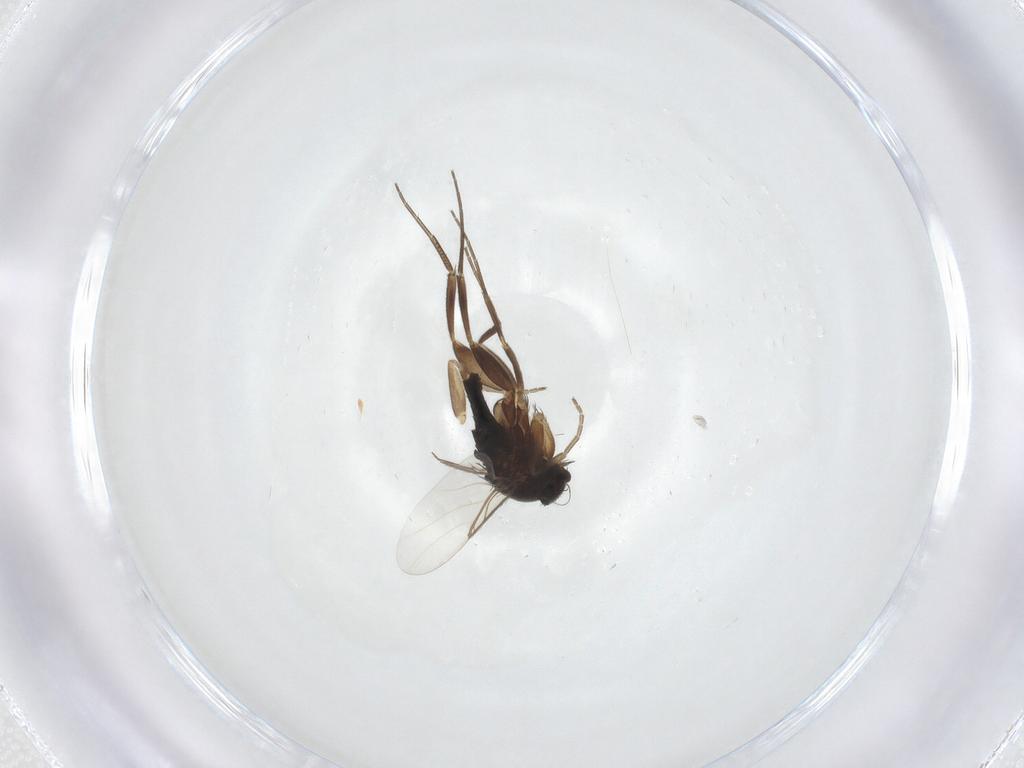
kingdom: Animalia
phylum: Arthropoda
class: Insecta
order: Diptera
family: Phoridae
